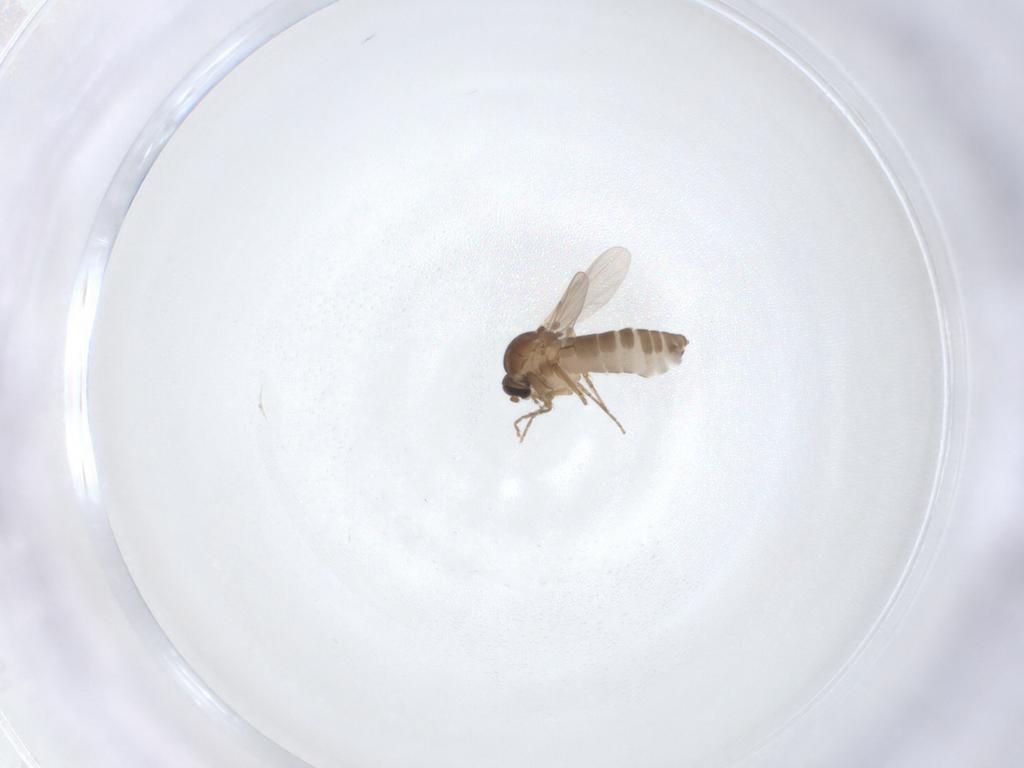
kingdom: Animalia
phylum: Arthropoda
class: Insecta
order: Diptera
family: Ceratopogonidae
